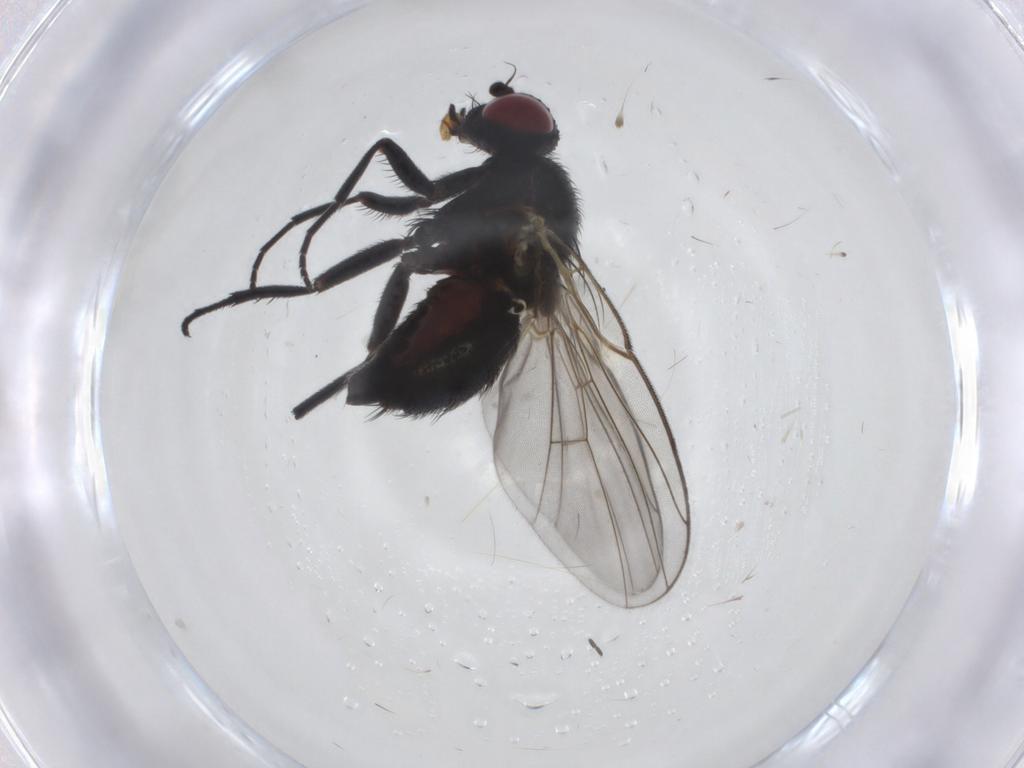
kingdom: Animalia
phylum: Arthropoda
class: Insecta
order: Diptera
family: Agromyzidae
